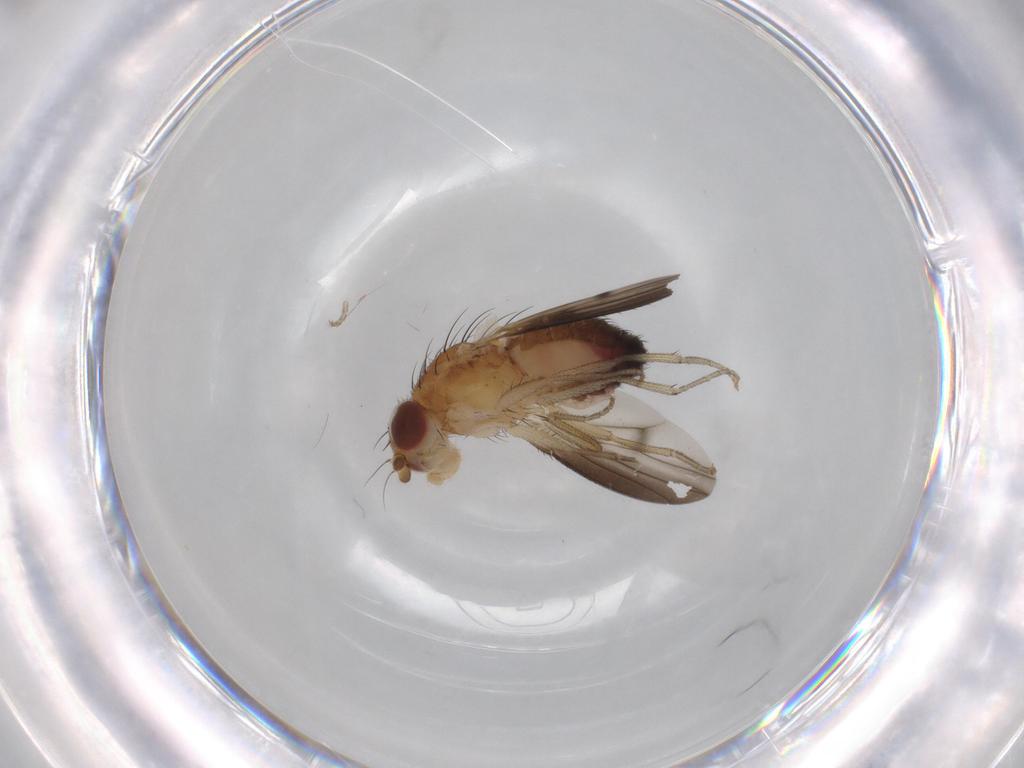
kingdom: Animalia
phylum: Arthropoda
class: Insecta
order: Diptera
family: Heleomyzidae
